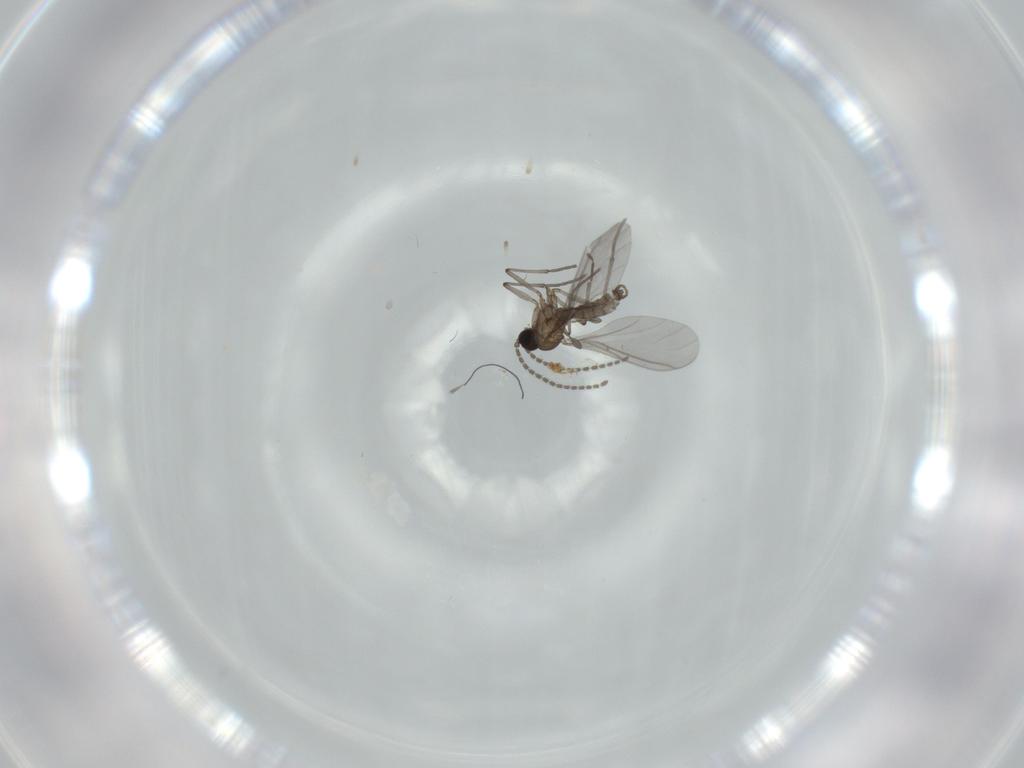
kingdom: Animalia
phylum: Arthropoda
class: Insecta
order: Diptera
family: Sciaridae
